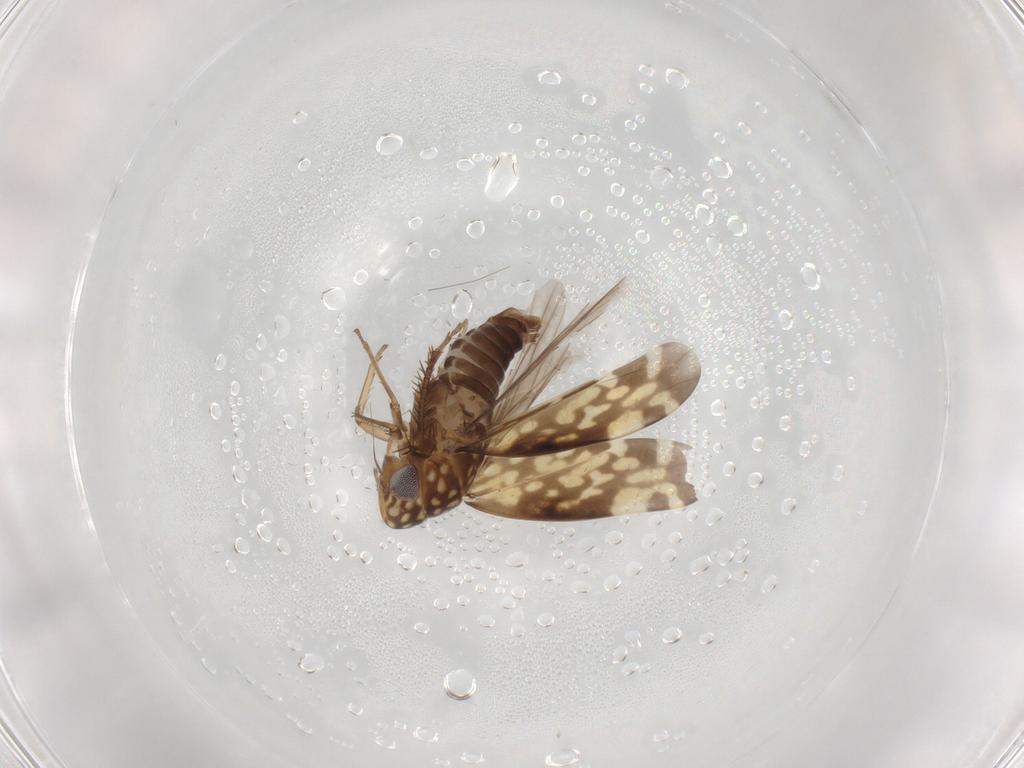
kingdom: Animalia
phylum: Arthropoda
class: Insecta
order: Hemiptera
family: Cicadellidae
